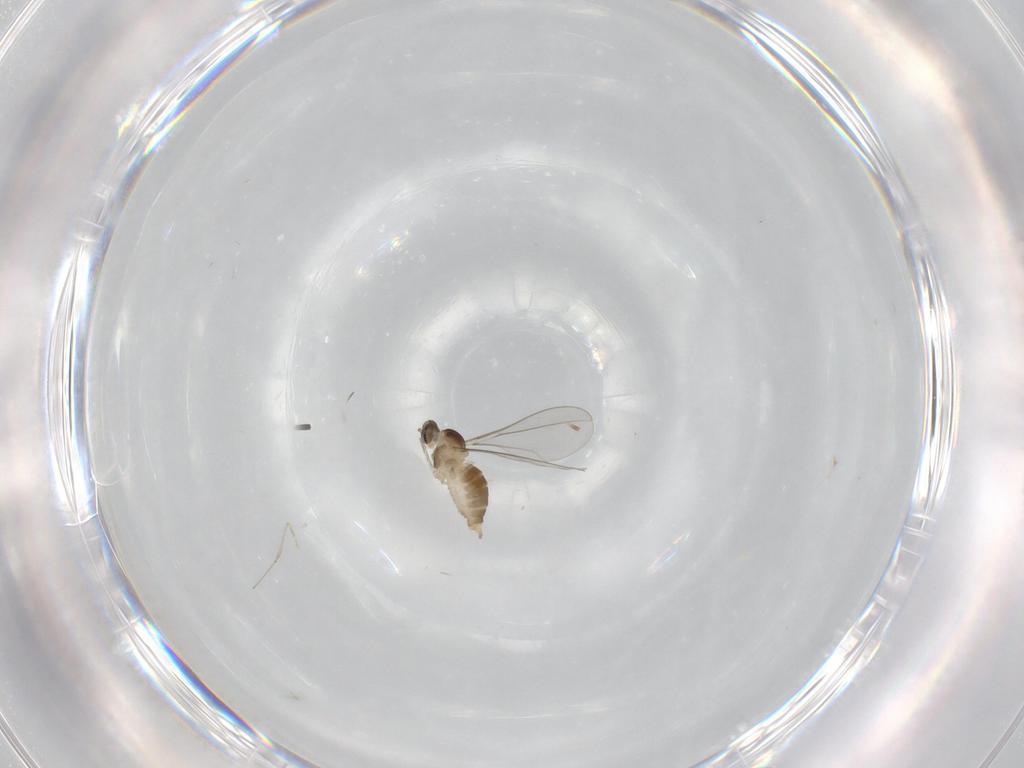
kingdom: Animalia
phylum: Arthropoda
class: Insecta
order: Diptera
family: Cecidomyiidae
